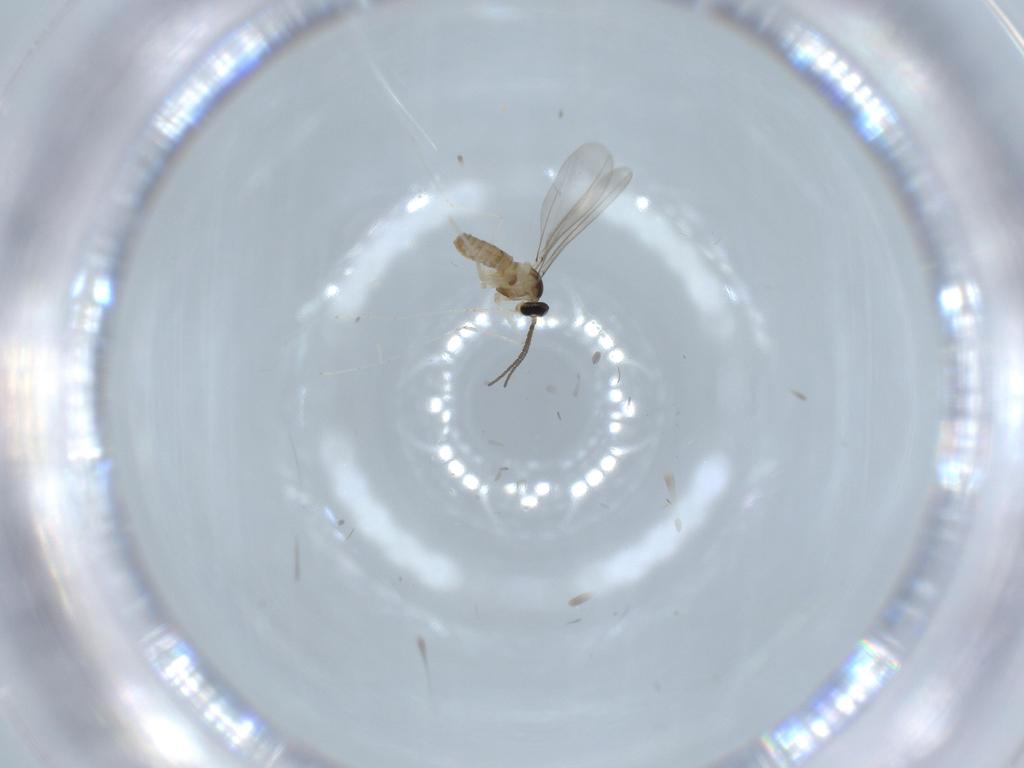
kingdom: Animalia
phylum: Arthropoda
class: Insecta
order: Diptera
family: Cecidomyiidae
